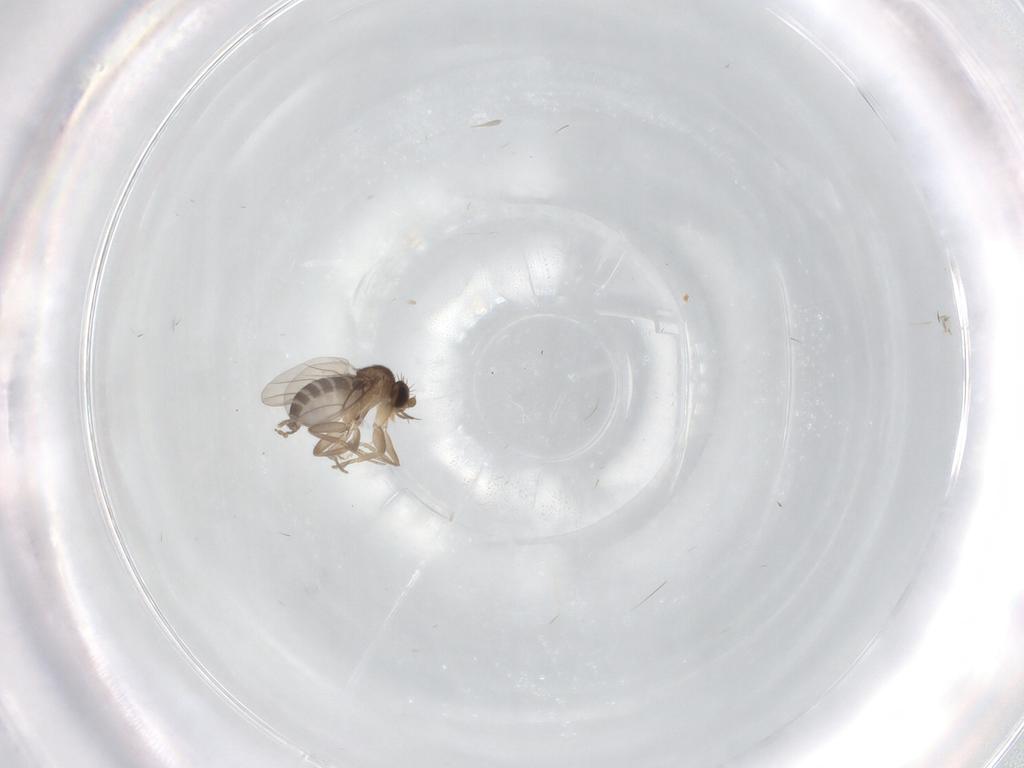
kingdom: Animalia
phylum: Arthropoda
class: Insecta
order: Diptera
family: Phoridae
